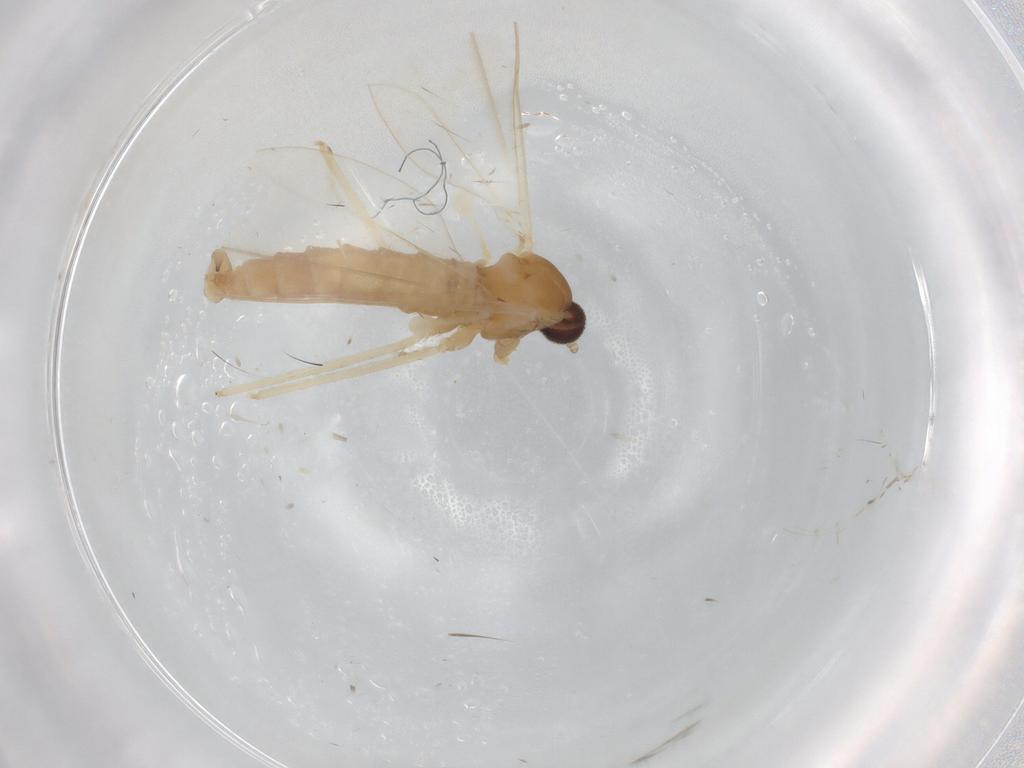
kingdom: Animalia
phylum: Arthropoda
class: Insecta
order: Diptera
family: Cecidomyiidae
